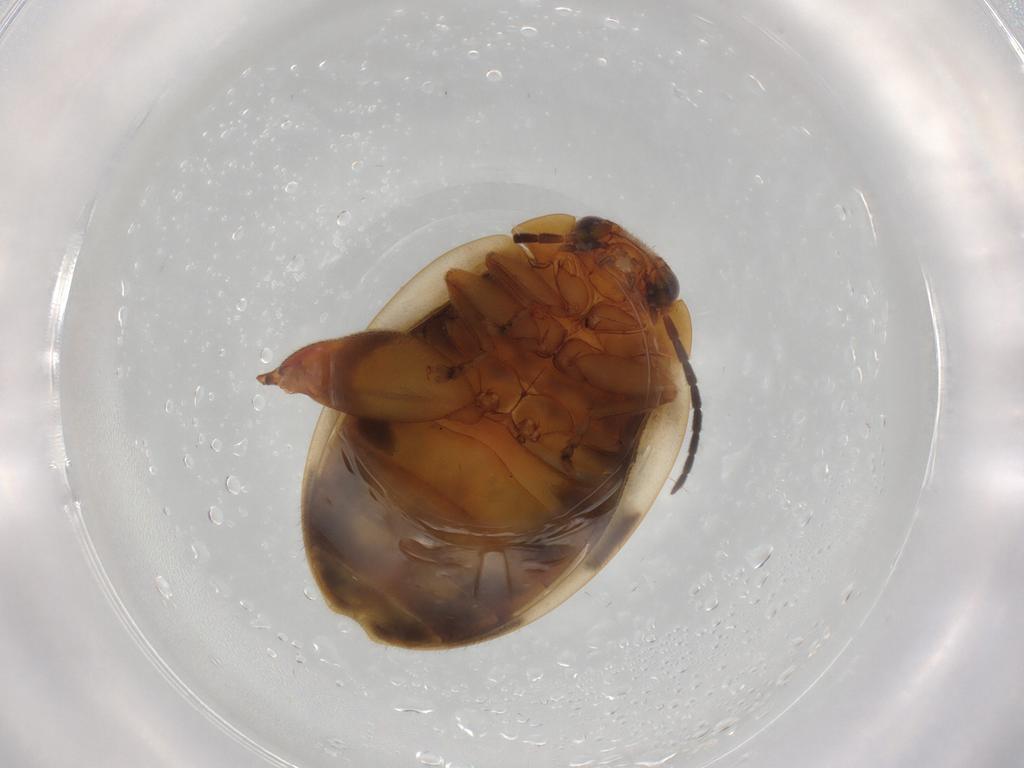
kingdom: Animalia
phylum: Arthropoda
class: Insecta
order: Coleoptera
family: Scirtidae
